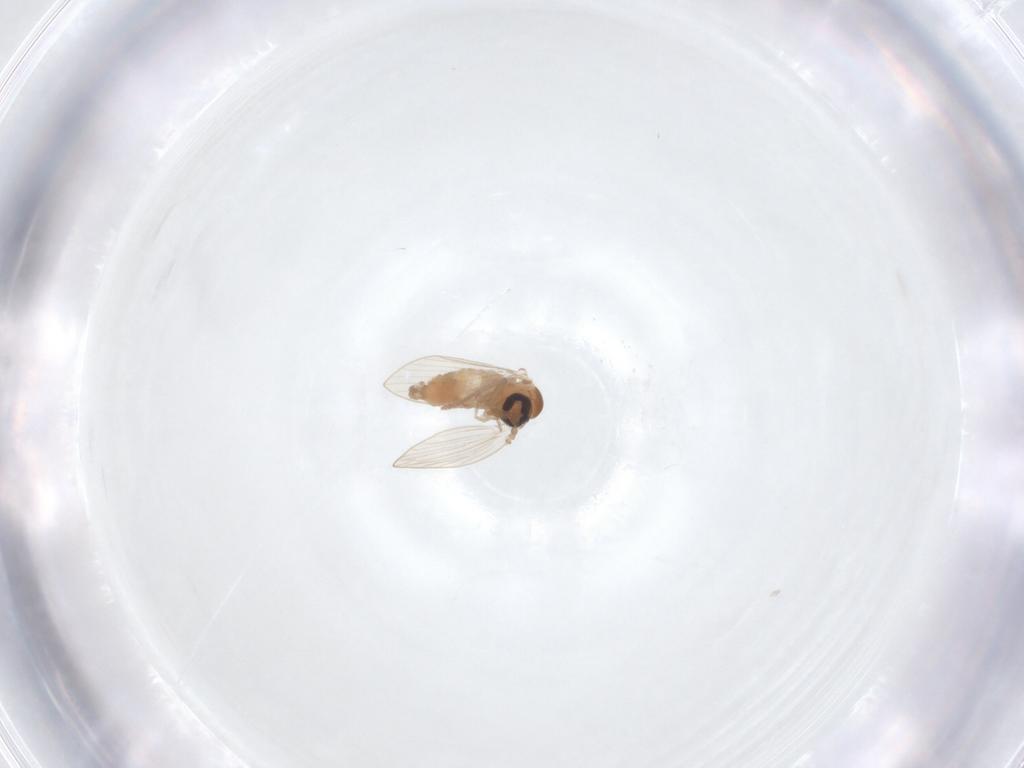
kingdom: Animalia
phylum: Arthropoda
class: Insecta
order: Diptera
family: Psychodidae
